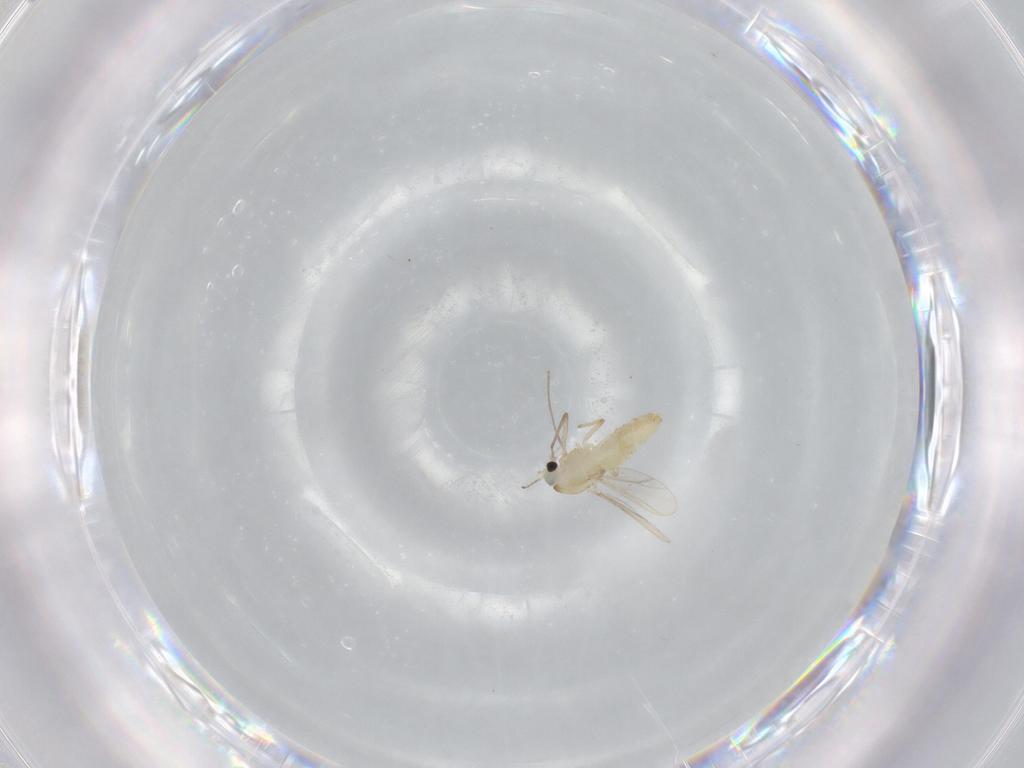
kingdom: Animalia
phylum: Arthropoda
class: Insecta
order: Diptera
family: Chironomidae
